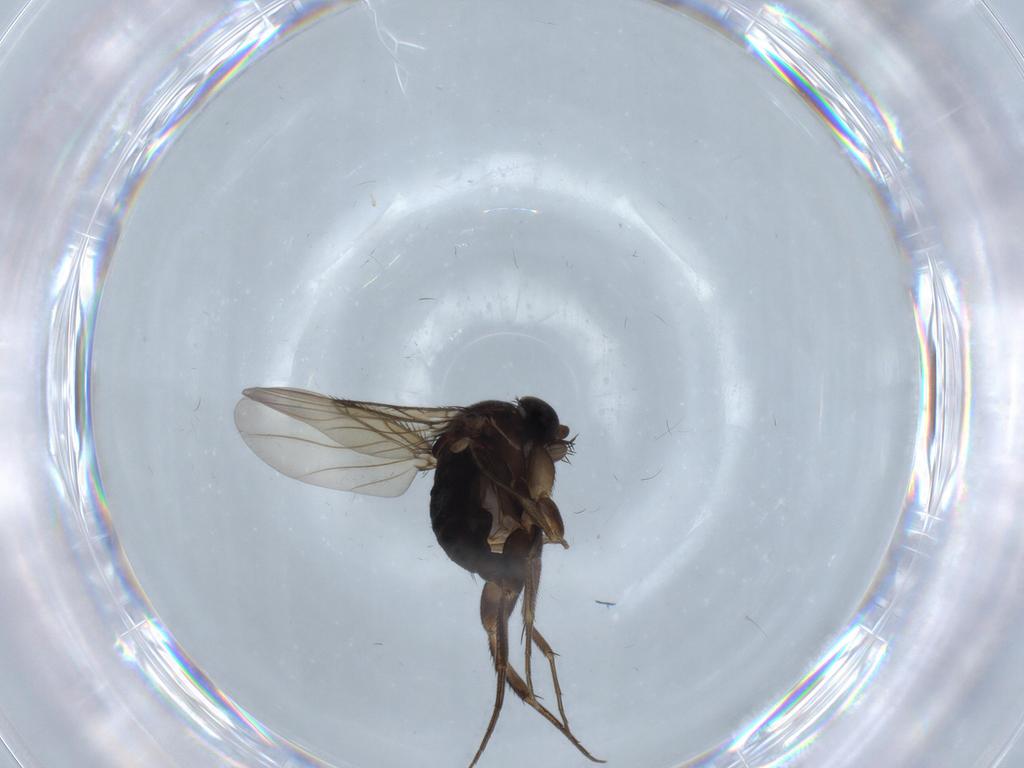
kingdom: Animalia
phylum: Arthropoda
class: Insecta
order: Diptera
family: Phoridae
